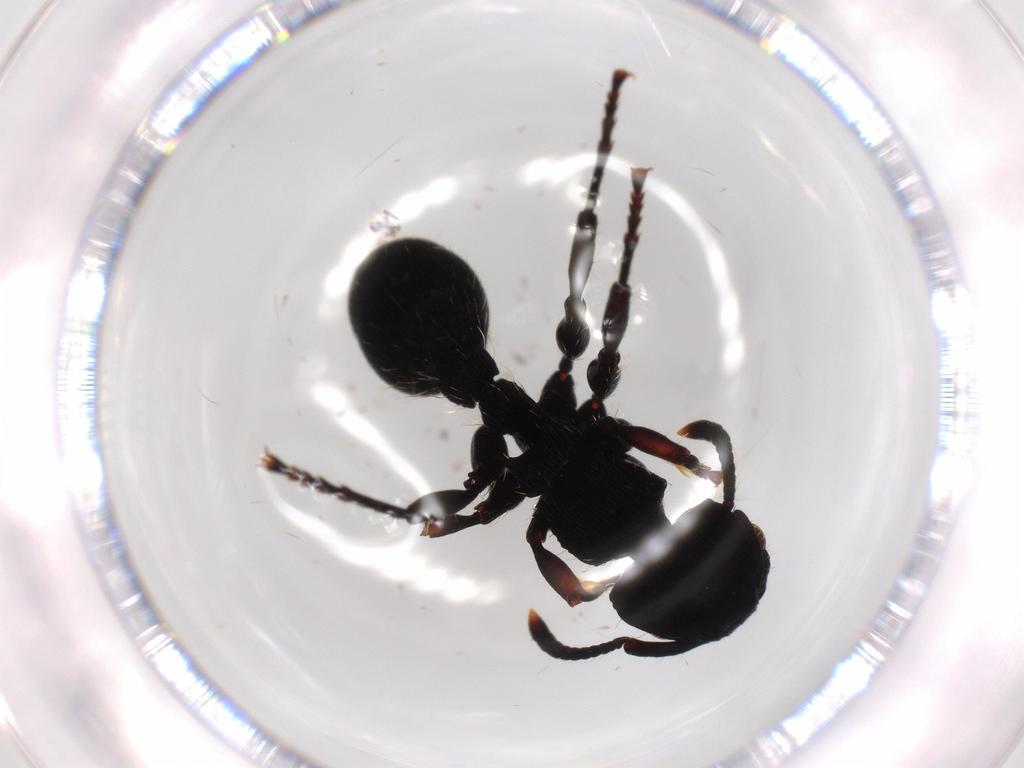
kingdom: Animalia
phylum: Arthropoda
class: Insecta
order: Hymenoptera
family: Formicidae
